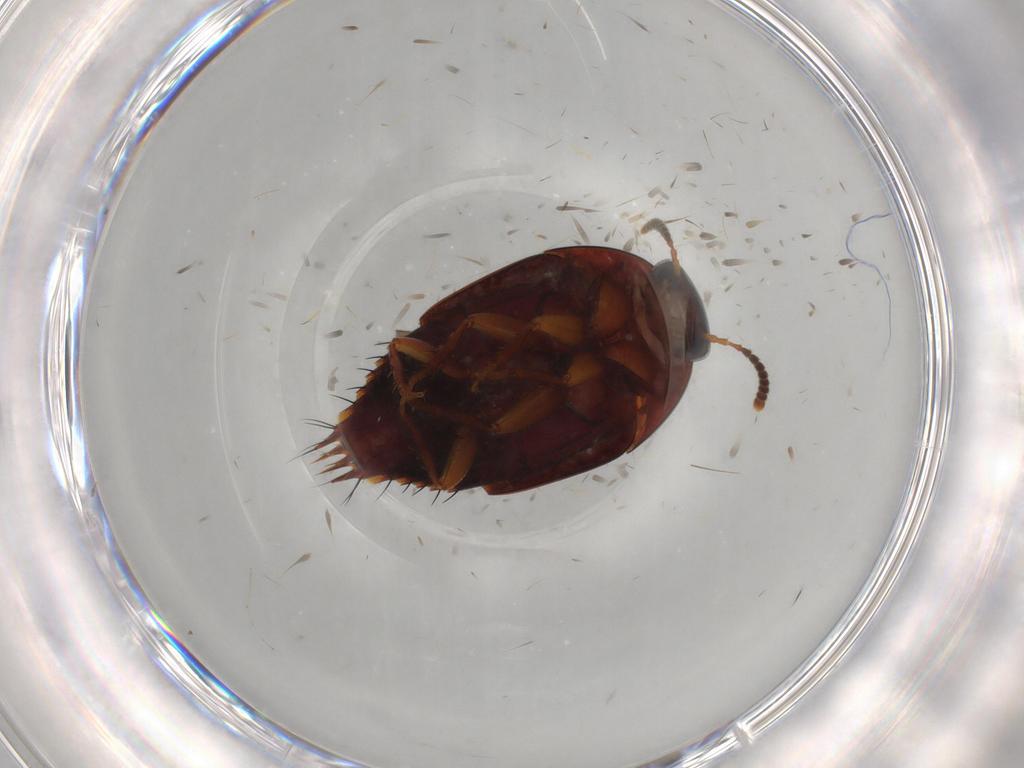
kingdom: Animalia
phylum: Arthropoda
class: Insecta
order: Coleoptera
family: Staphylinidae
